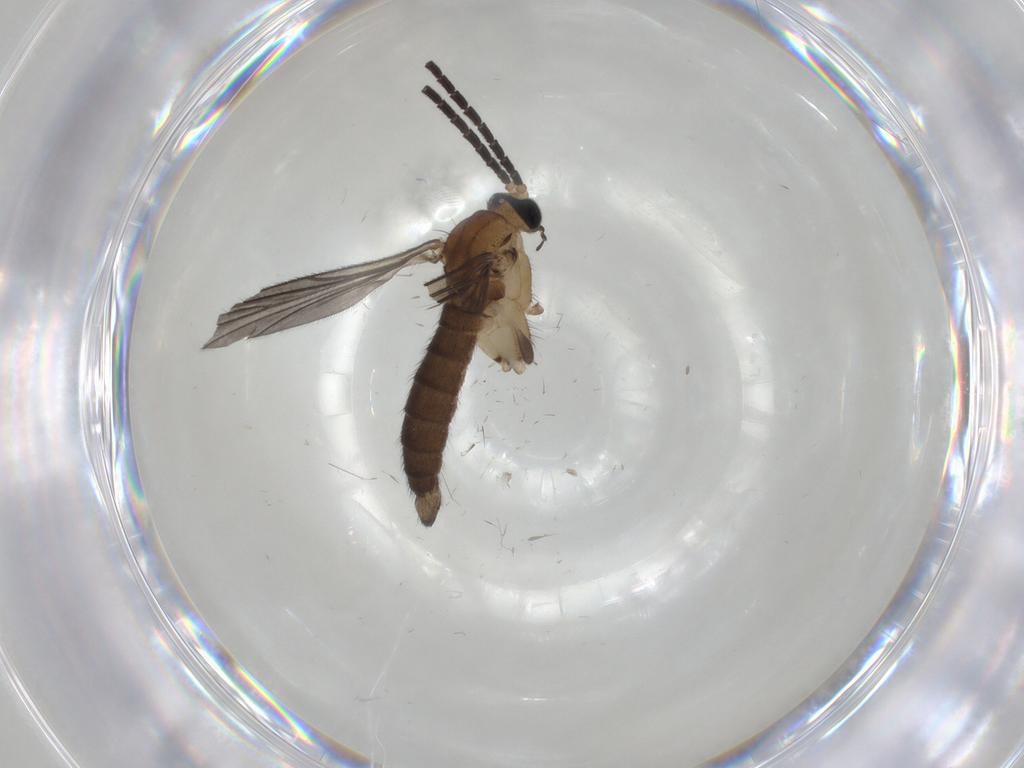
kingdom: Animalia
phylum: Arthropoda
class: Insecta
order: Diptera
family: Sciaridae
